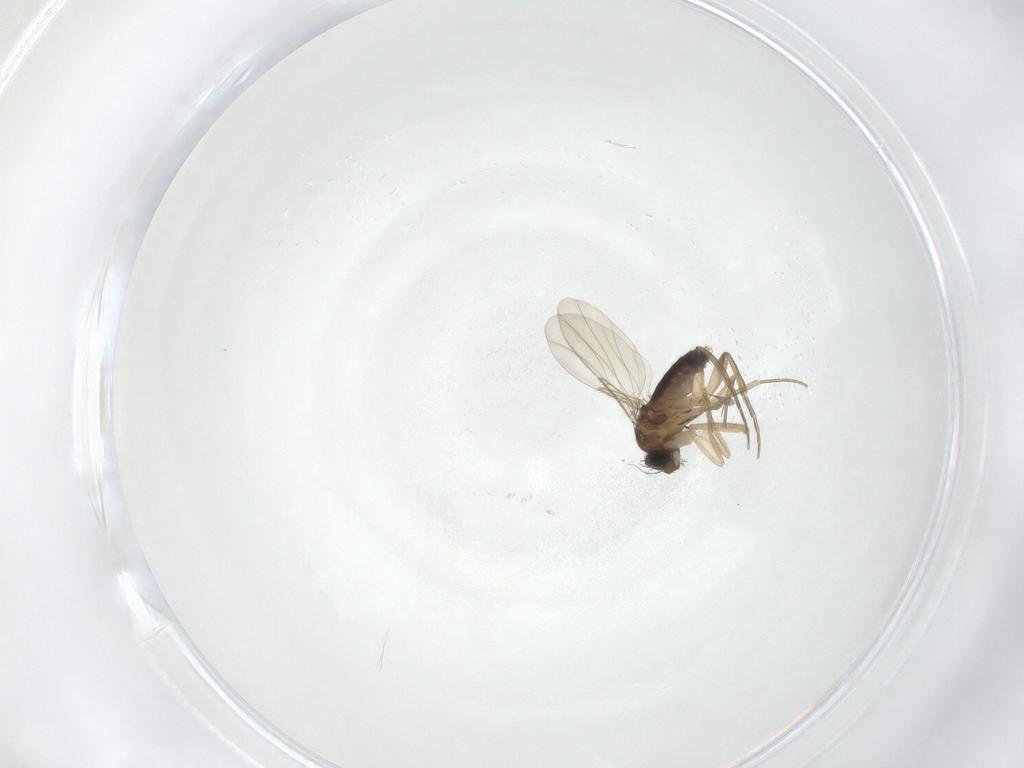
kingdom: Animalia
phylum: Arthropoda
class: Insecta
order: Diptera
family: Phoridae
